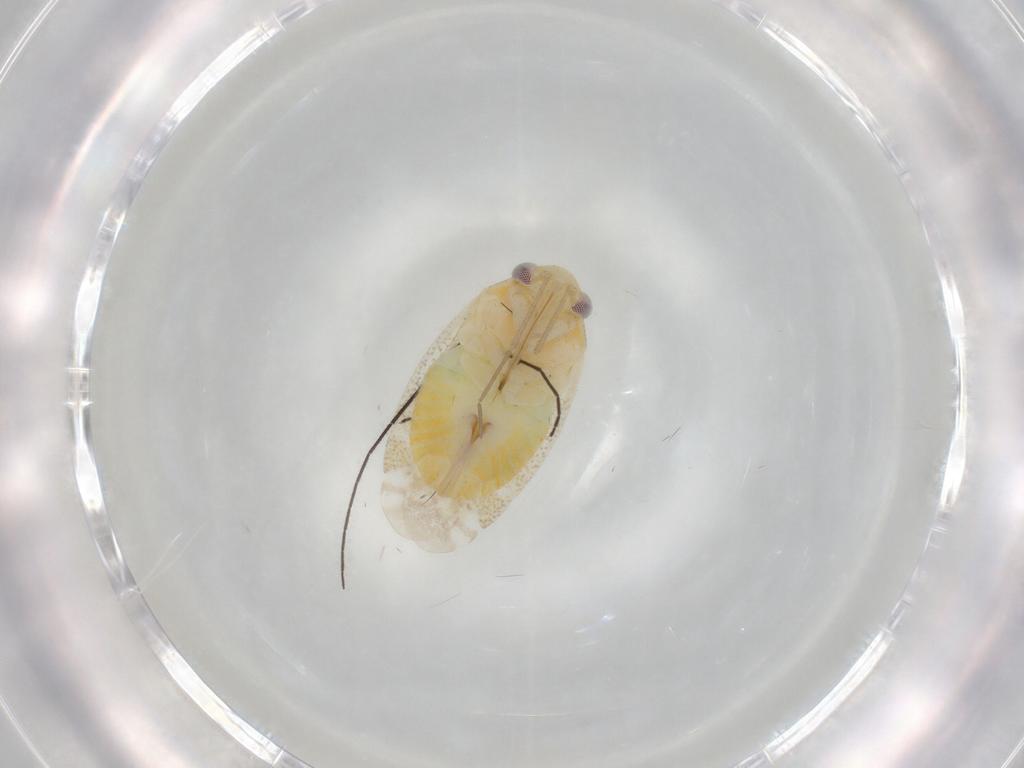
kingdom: Animalia
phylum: Arthropoda
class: Insecta
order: Hemiptera
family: Miridae
